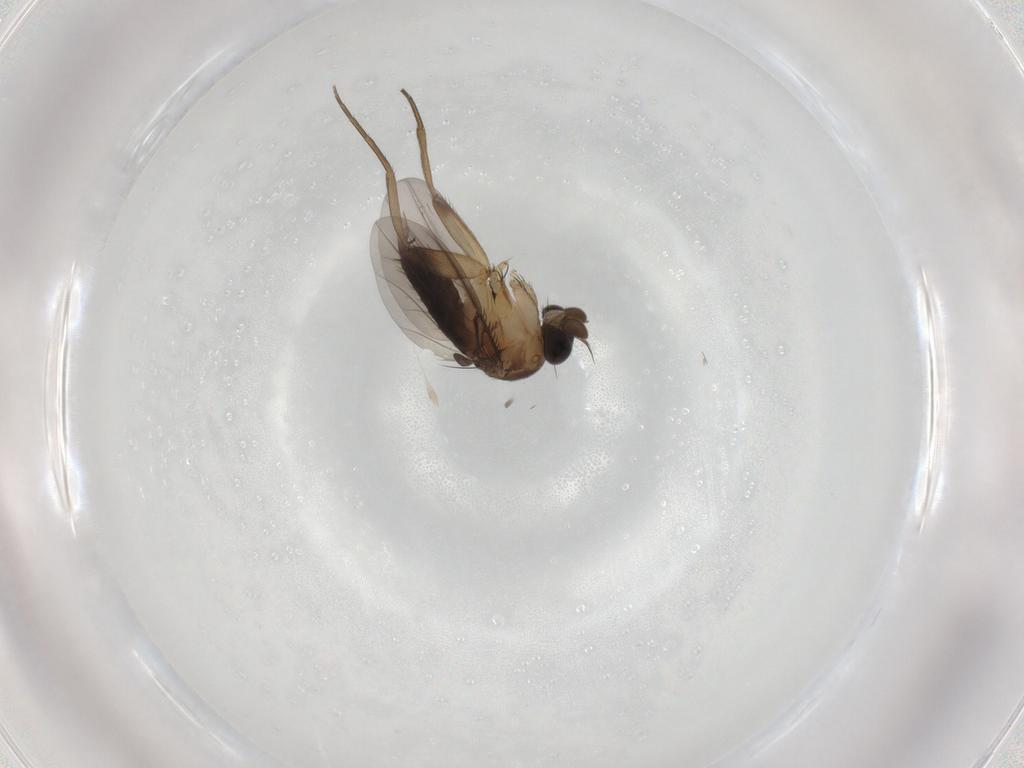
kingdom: Animalia
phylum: Arthropoda
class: Insecta
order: Diptera
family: Phoridae
